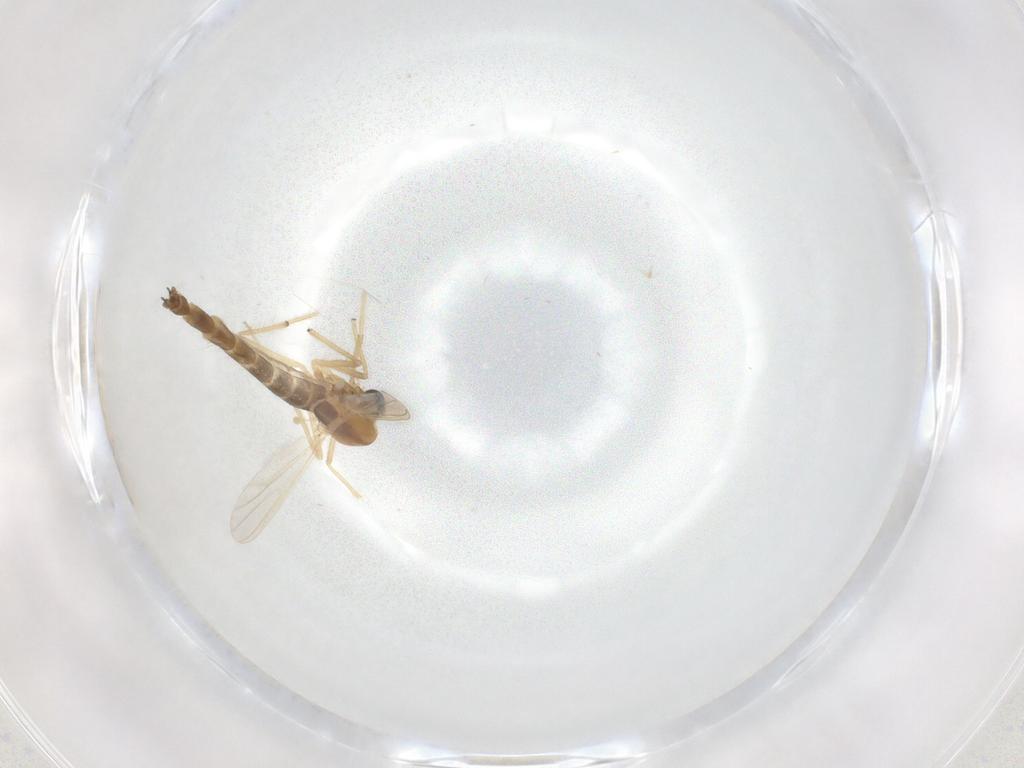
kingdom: Animalia
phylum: Arthropoda
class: Insecta
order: Diptera
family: Chironomidae
